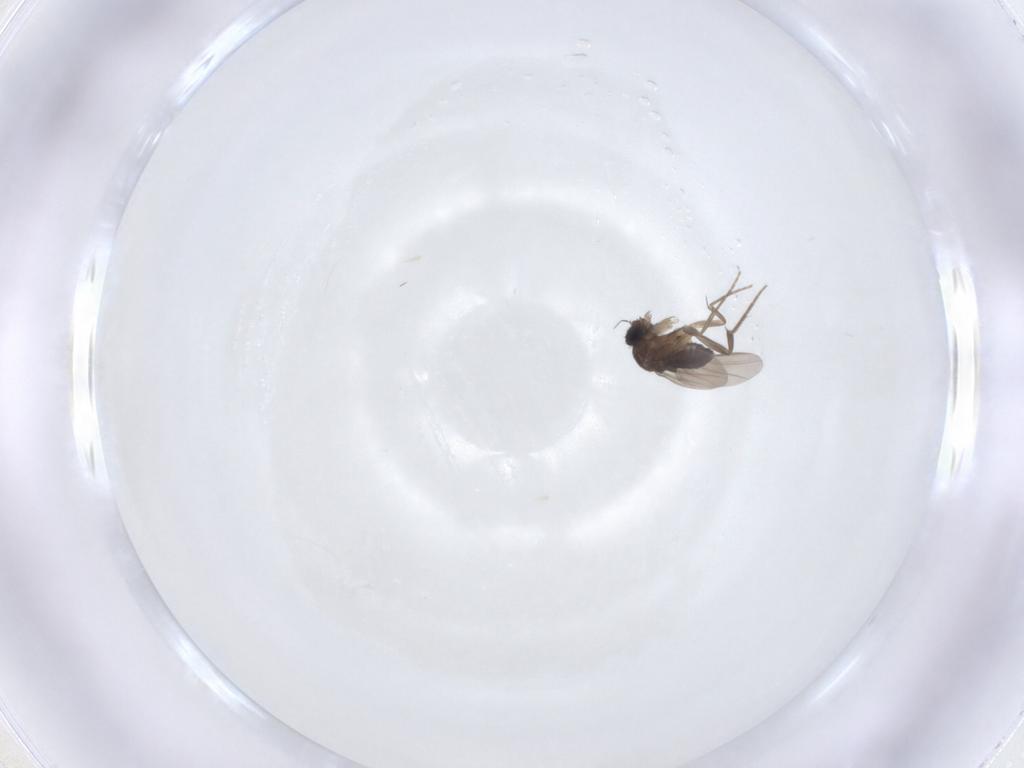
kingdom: Animalia
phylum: Arthropoda
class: Insecta
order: Diptera
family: Phoridae
